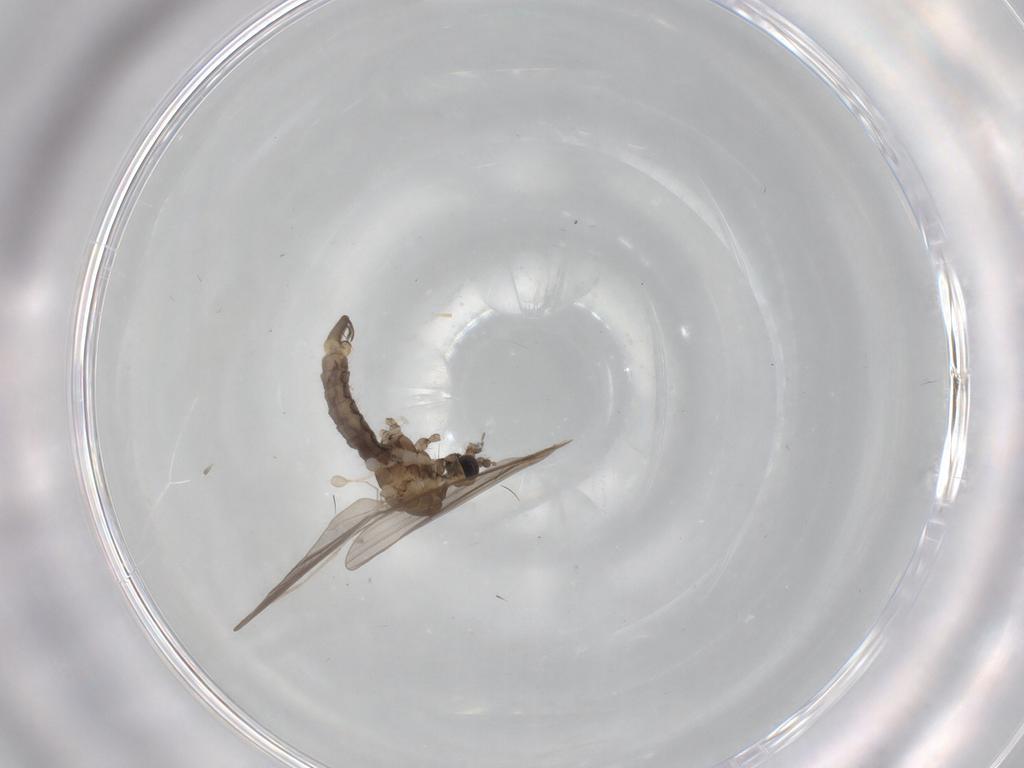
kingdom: Animalia
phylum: Arthropoda
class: Insecta
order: Diptera
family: Limoniidae
